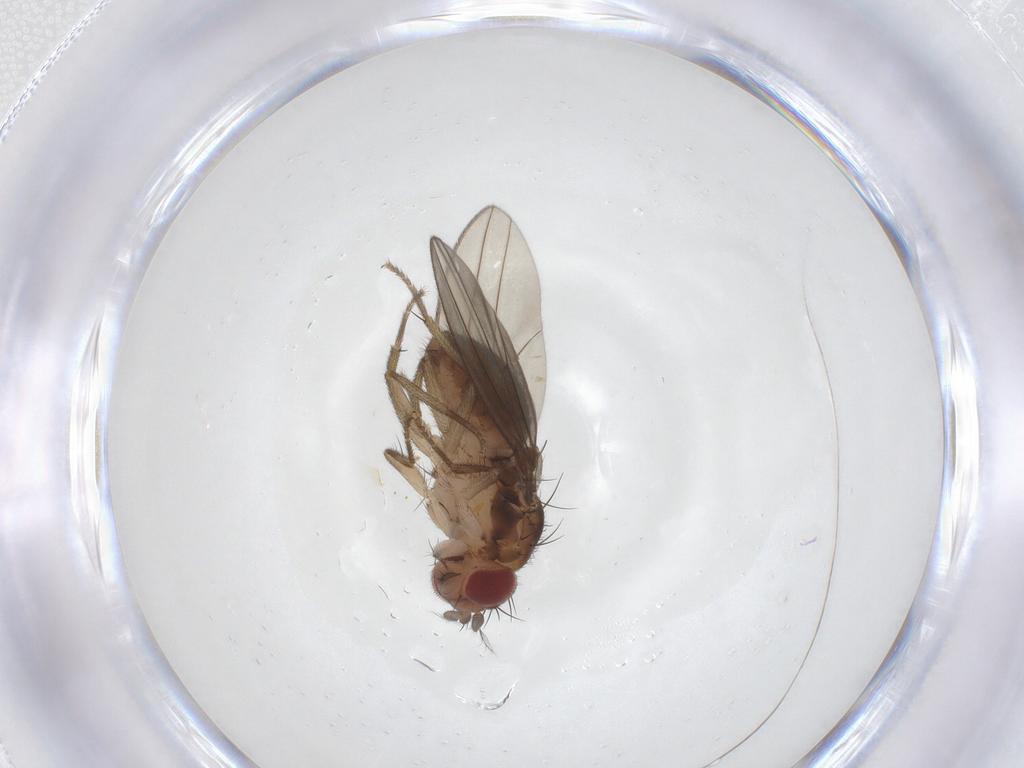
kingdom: Animalia
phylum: Arthropoda
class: Insecta
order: Diptera
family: Drosophilidae
